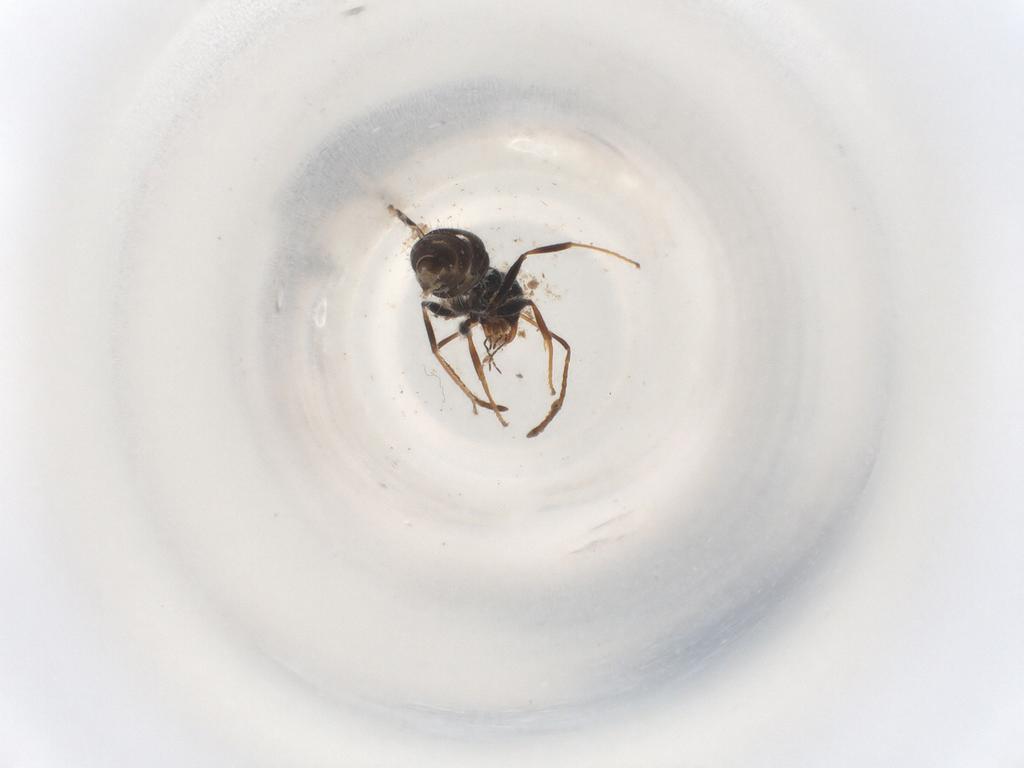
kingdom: Animalia
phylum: Arthropoda
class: Insecta
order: Hymenoptera
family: Formicidae
